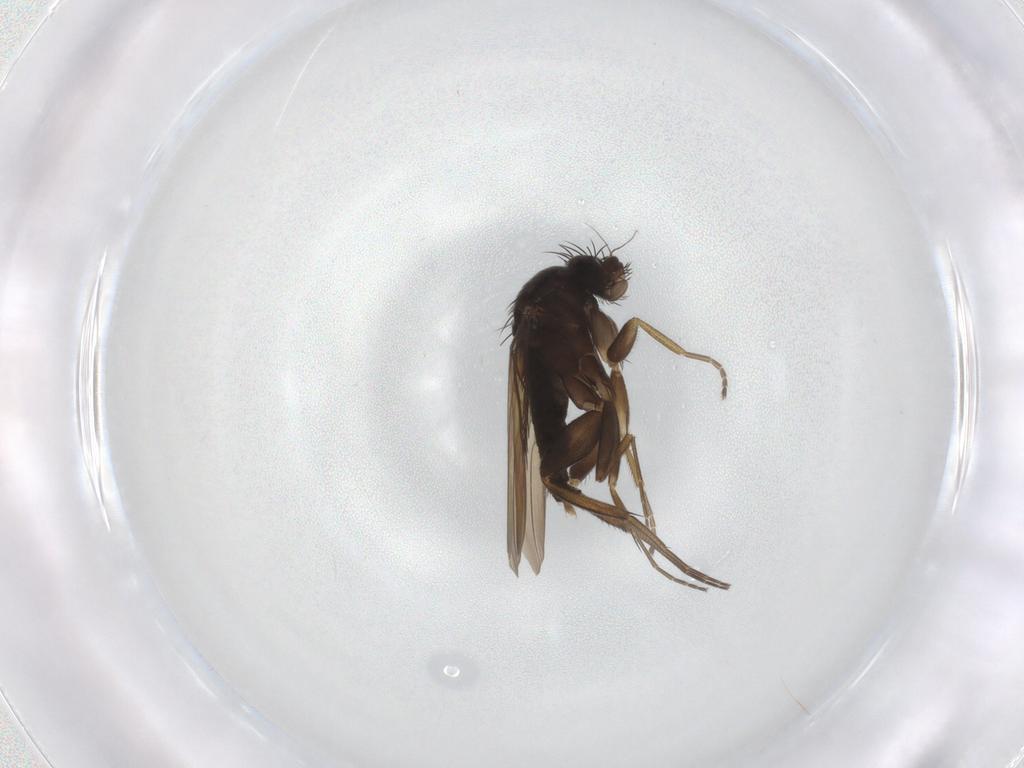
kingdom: Animalia
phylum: Arthropoda
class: Insecta
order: Diptera
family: Phoridae
